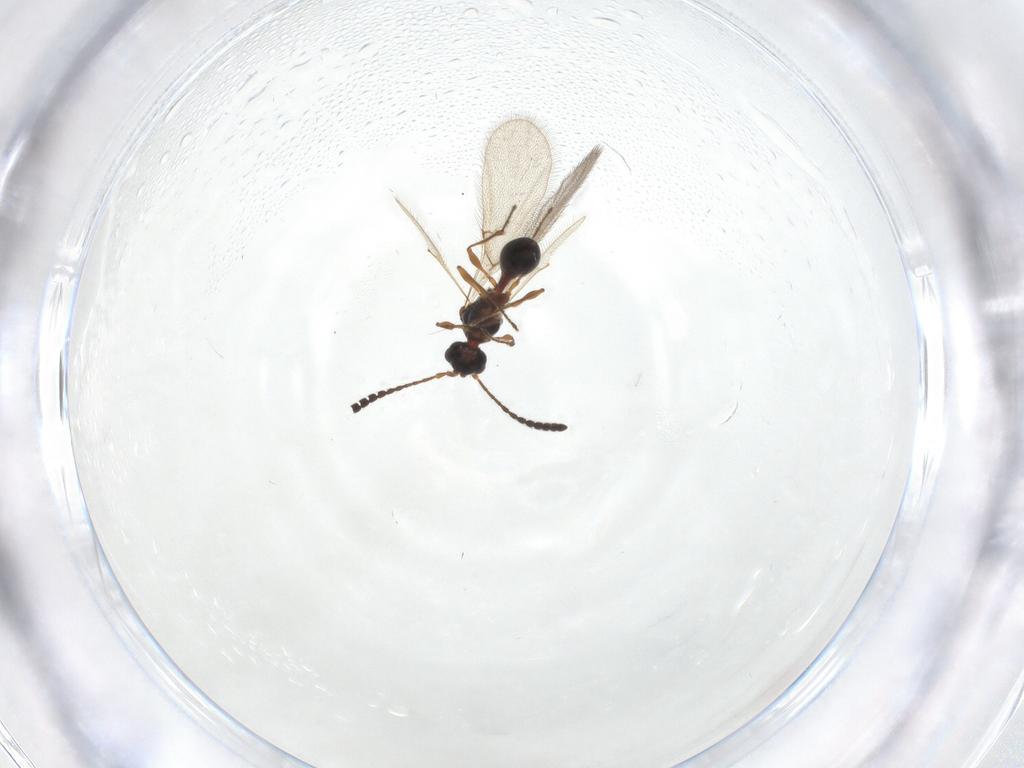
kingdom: Animalia
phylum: Arthropoda
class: Insecta
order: Hymenoptera
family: Diapriidae
